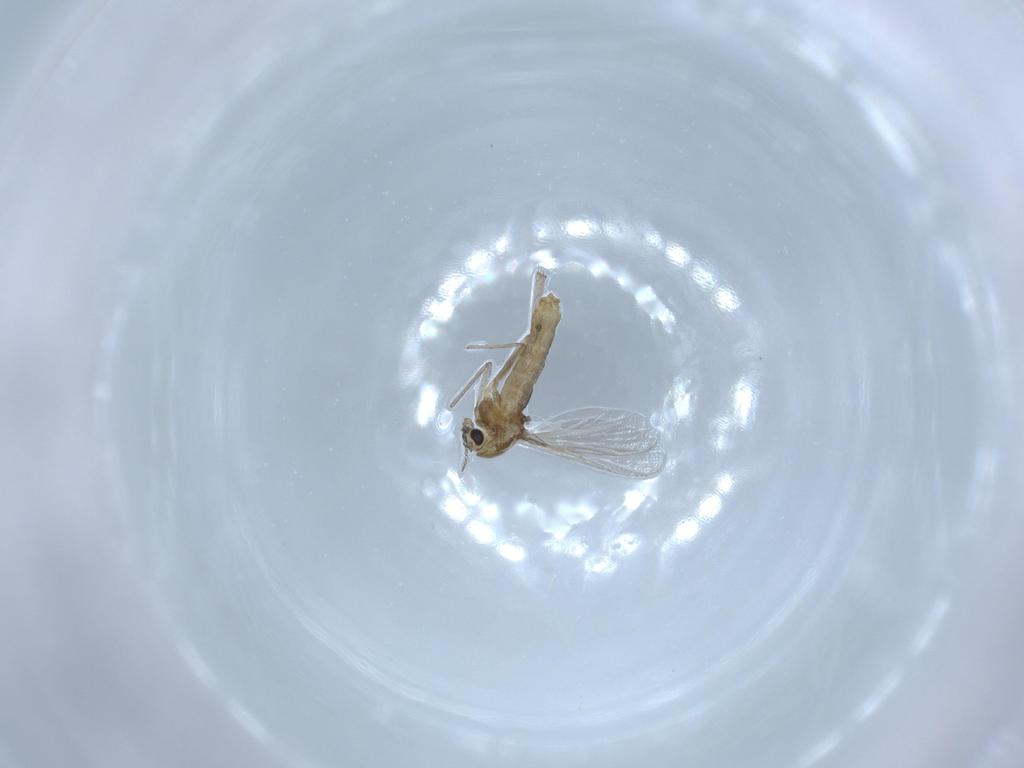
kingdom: Animalia
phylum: Arthropoda
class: Insecta
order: Diptera
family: Chironomidae
